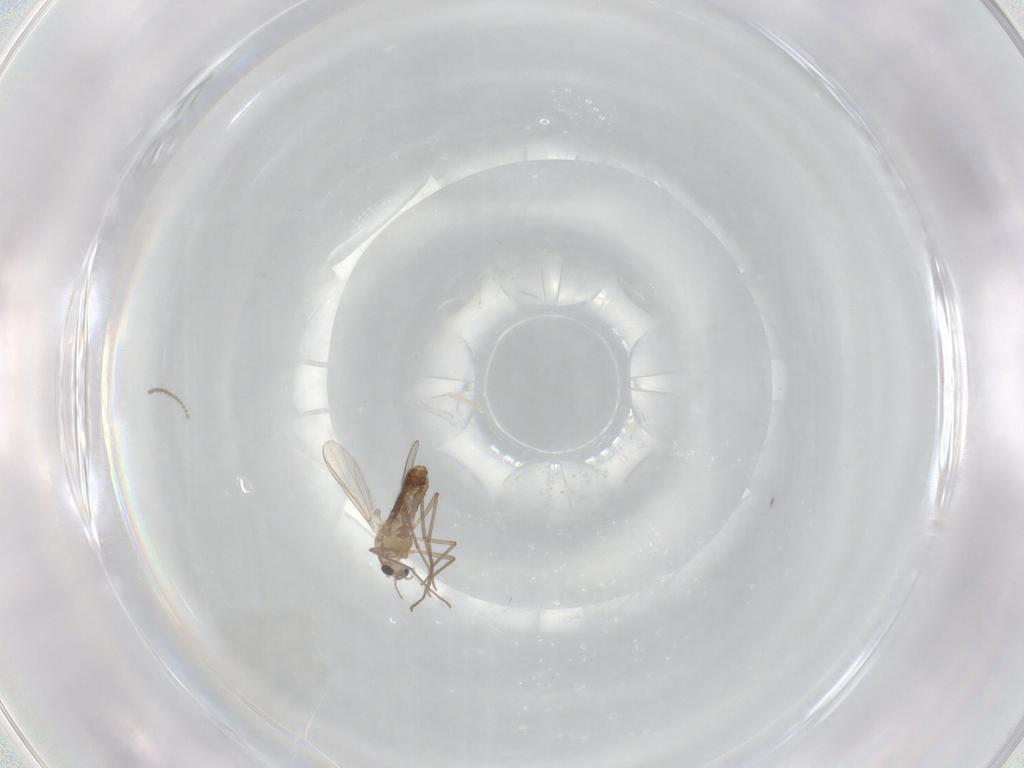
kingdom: Animalia
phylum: Arthropoda
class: Insecta
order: Diptera
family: Chironomidae
